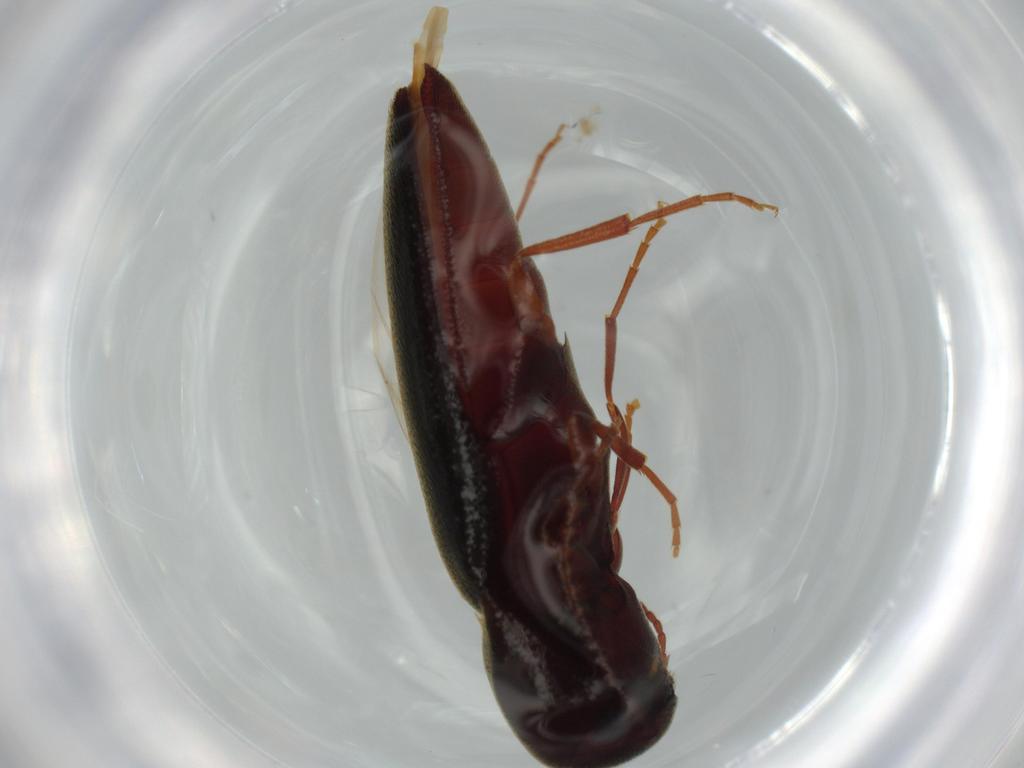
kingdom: Animalia
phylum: Arthropoda
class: Insecta
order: Coleoptera
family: Eucnemidae
